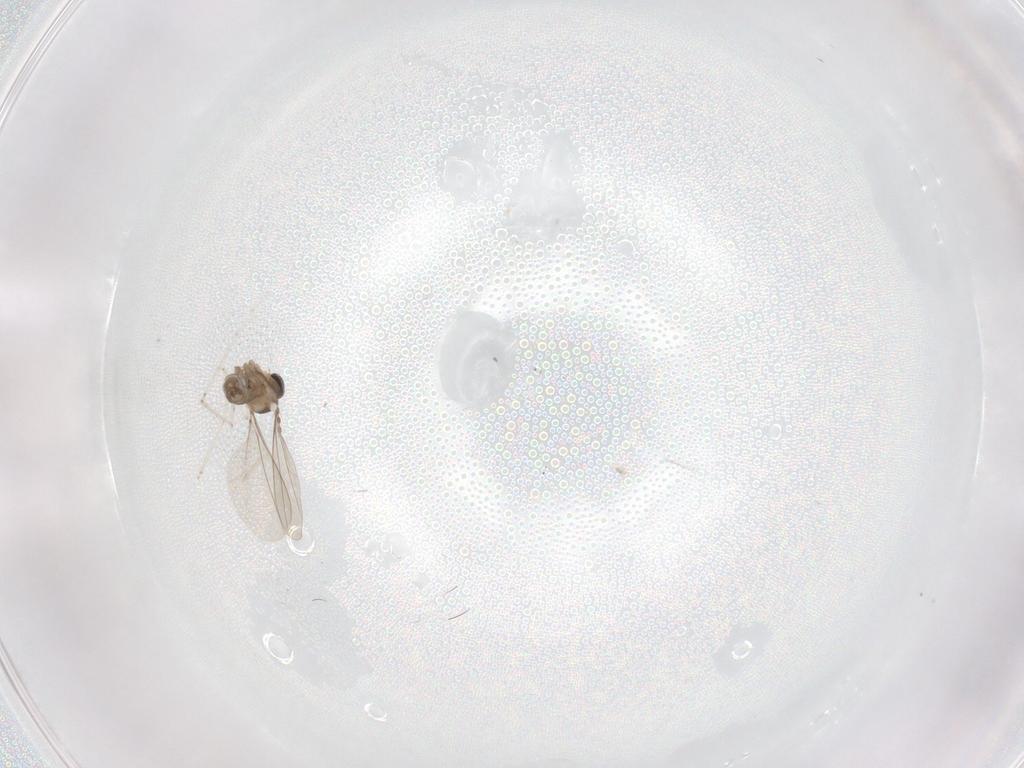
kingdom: Animalia
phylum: Arthropoda
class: Insecta
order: Diptera
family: Cecidomyiidae
